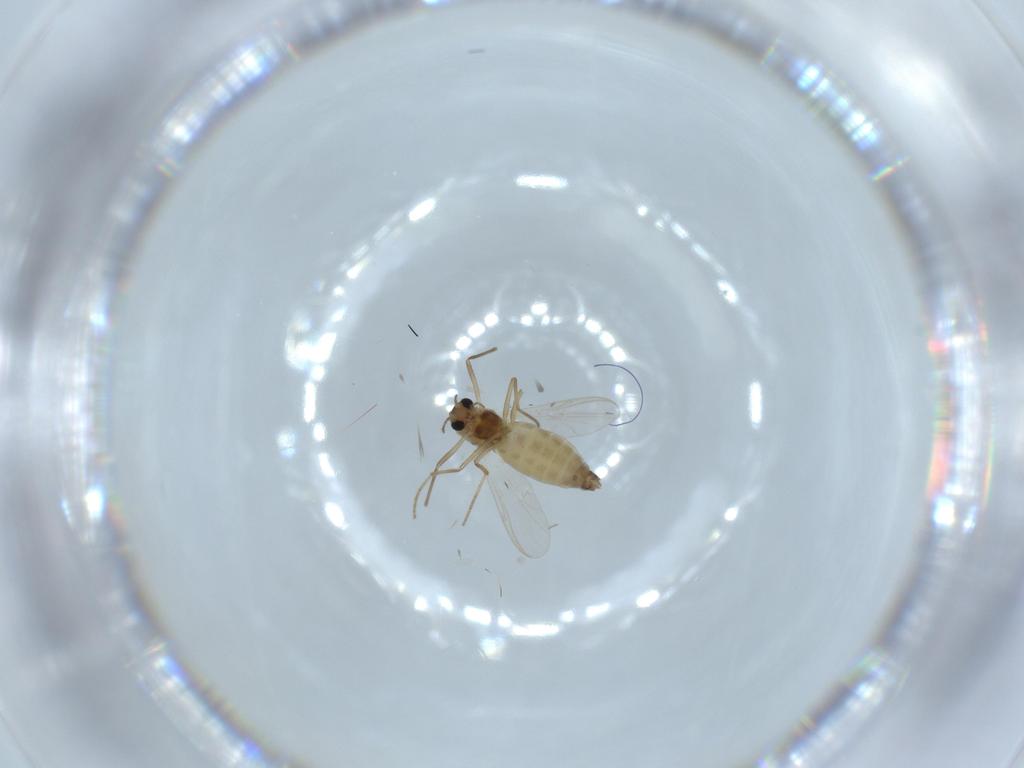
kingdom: Animalia
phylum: Arthropoda
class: Insecta
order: Diptera
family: Chironomidae
